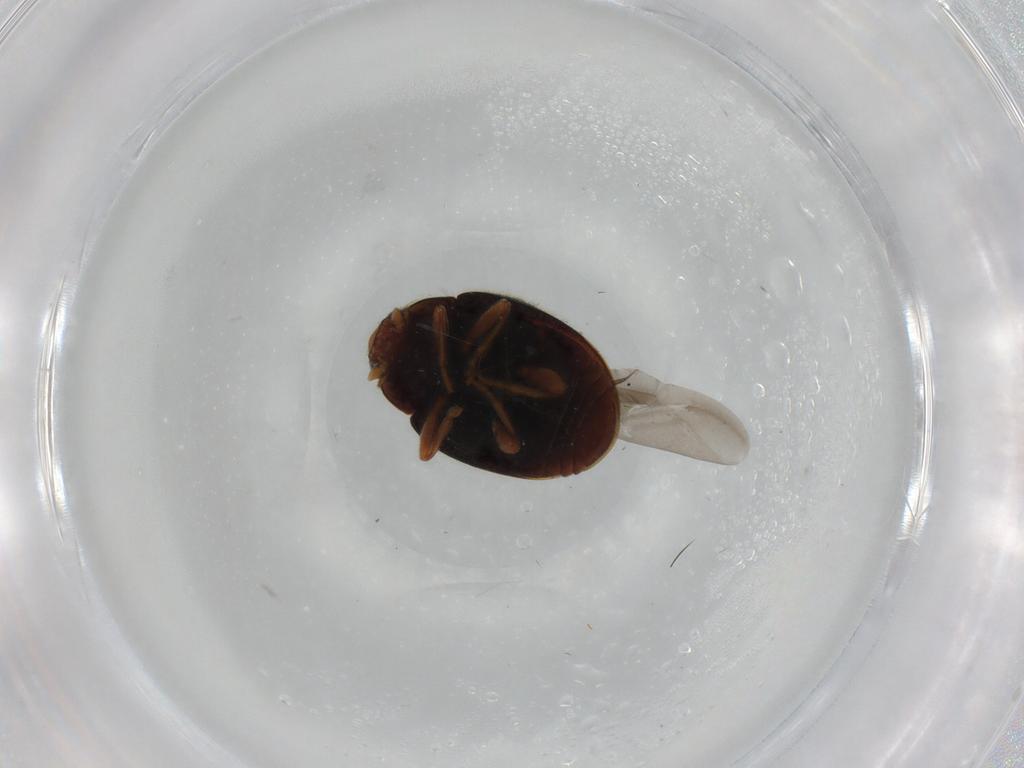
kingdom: Animalia
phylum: Arthropoda
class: Insecta
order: Coleoptera
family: Coccinellidae
